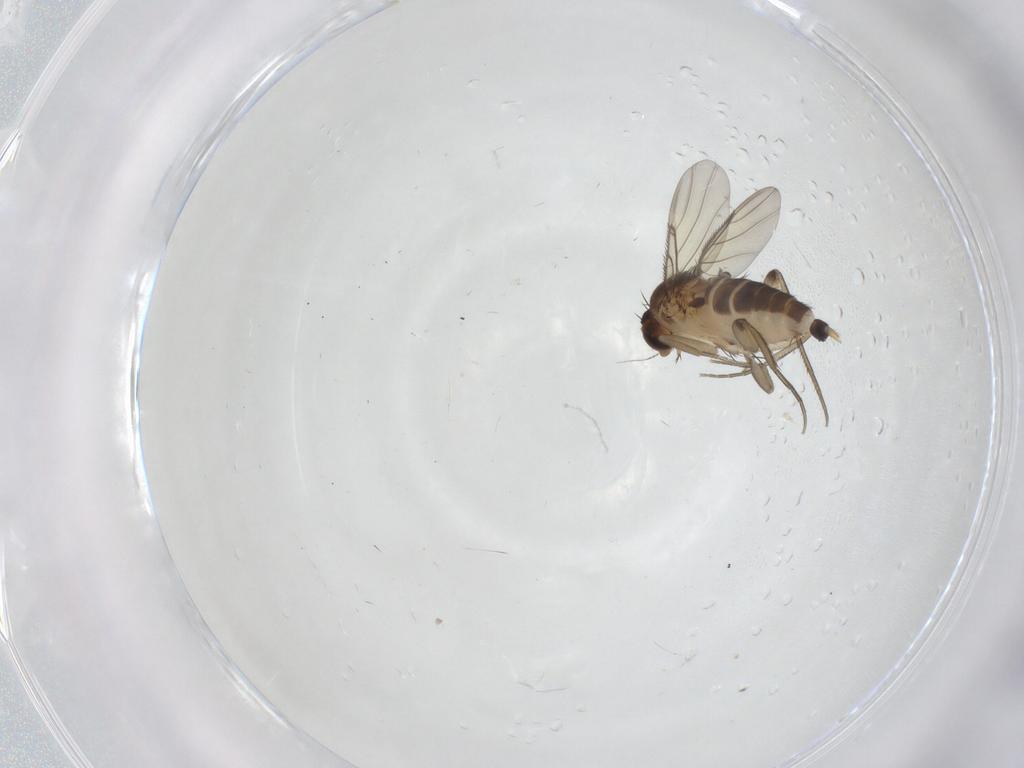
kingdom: Animalia
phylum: Arthropoda
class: Insecta
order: Diptera
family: Sciaridae
